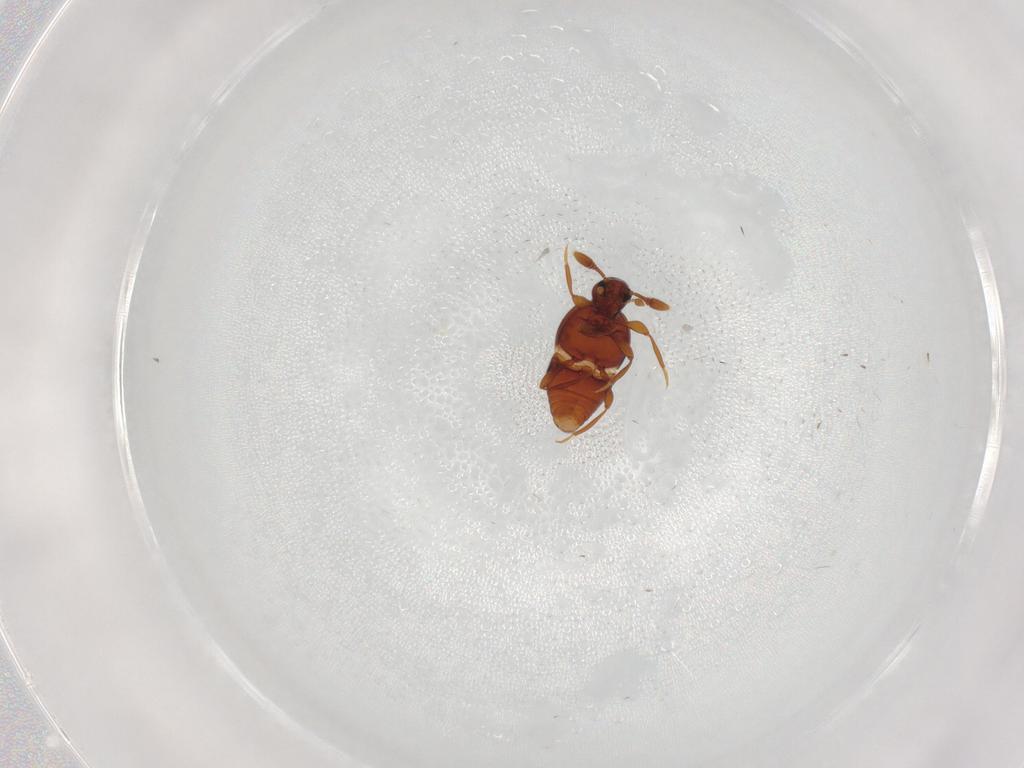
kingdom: Animalia
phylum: Arthropoda
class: Insecta
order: Coleoptera
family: Staphylinidae
